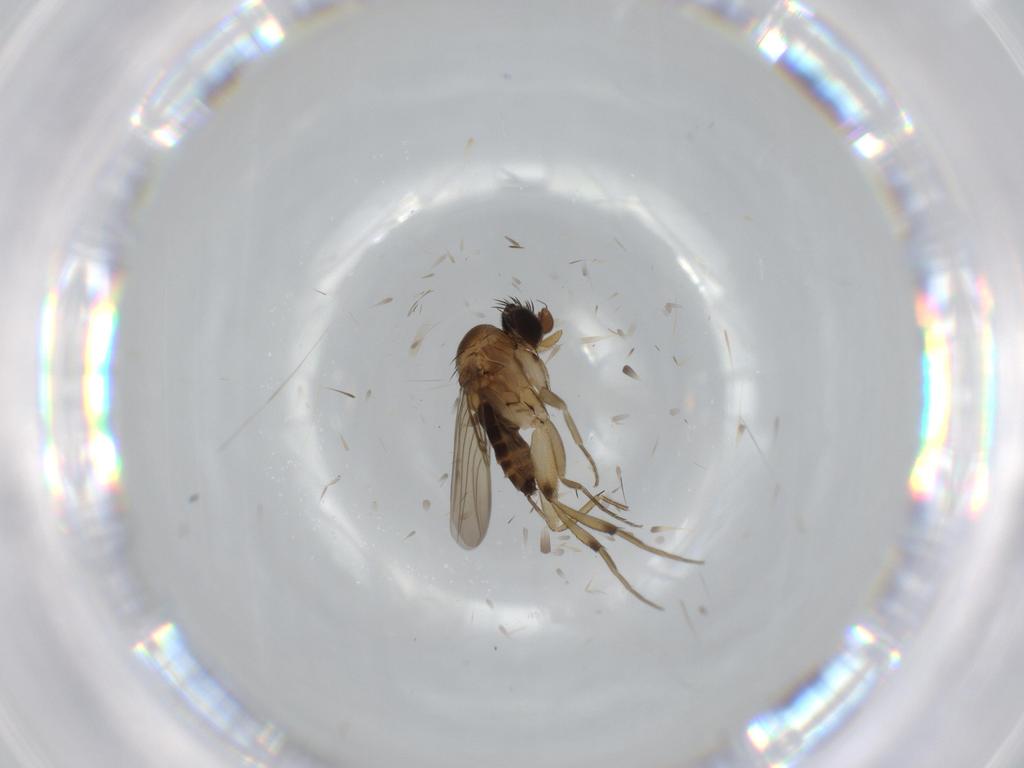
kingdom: Animalia
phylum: Arthropoda
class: Insecta
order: Diptera
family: Phoridae
